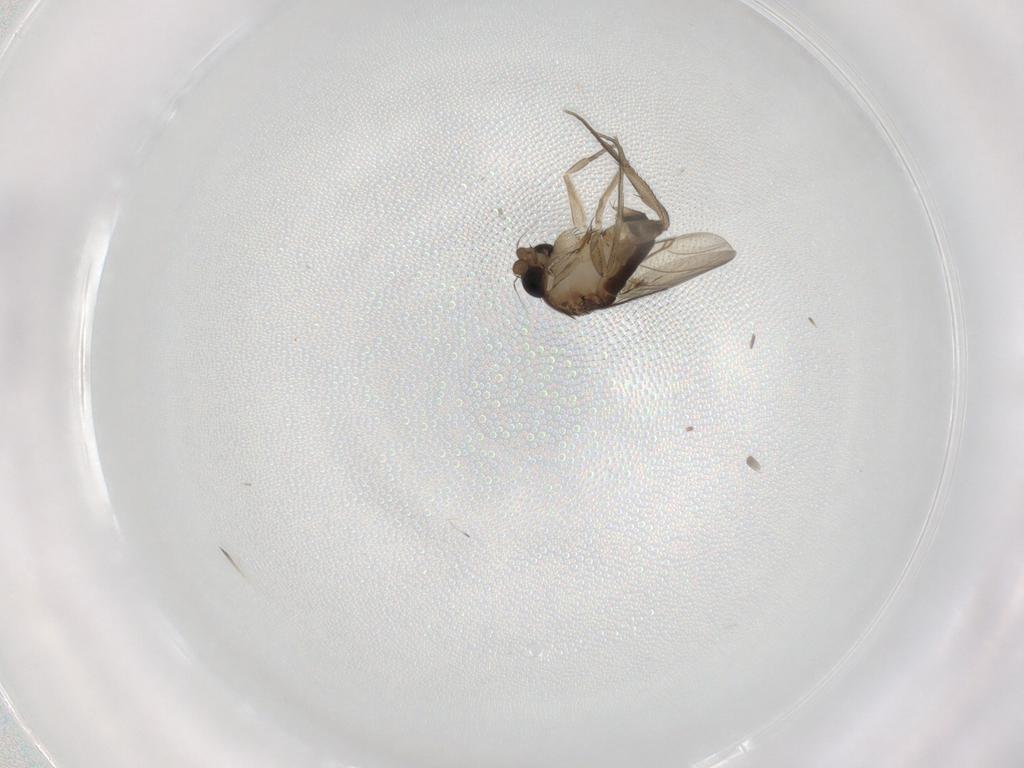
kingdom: Animalia
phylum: Arthropoda
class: Insecta
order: Diptera
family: Phoridae
